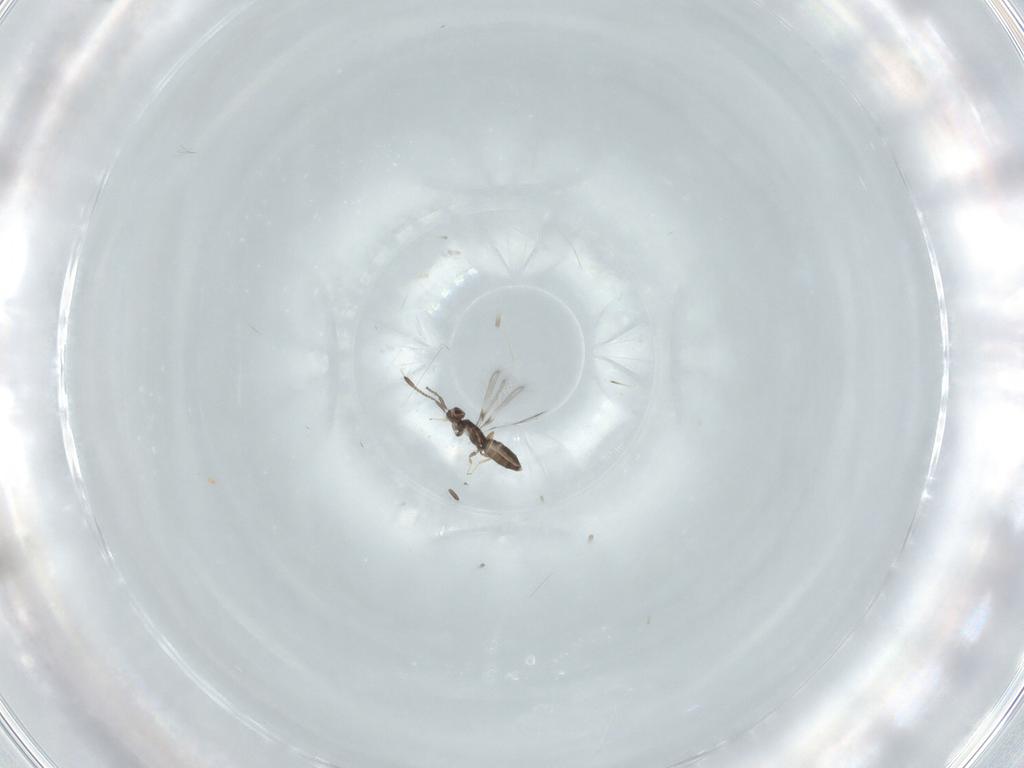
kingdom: Animalia
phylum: Arthropoda
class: Insecta
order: Hymenoptera
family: Mymaridae
